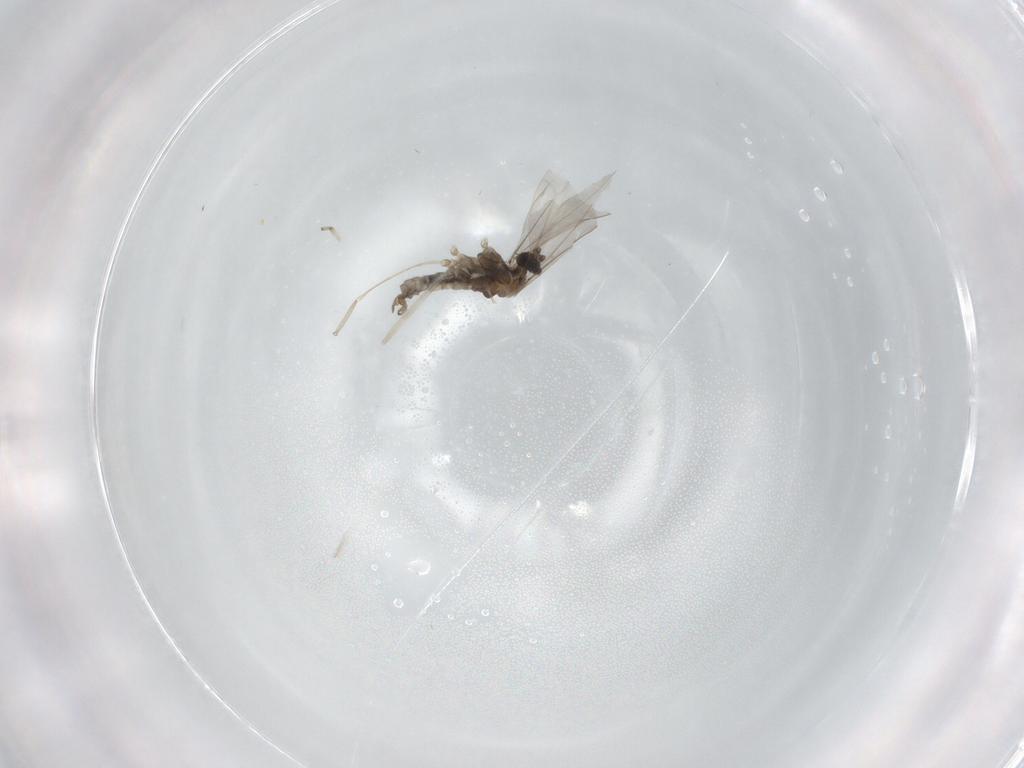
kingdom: Animalia
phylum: Arthropoda
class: Insecta
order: Diptera
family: Cecidomyiidae
